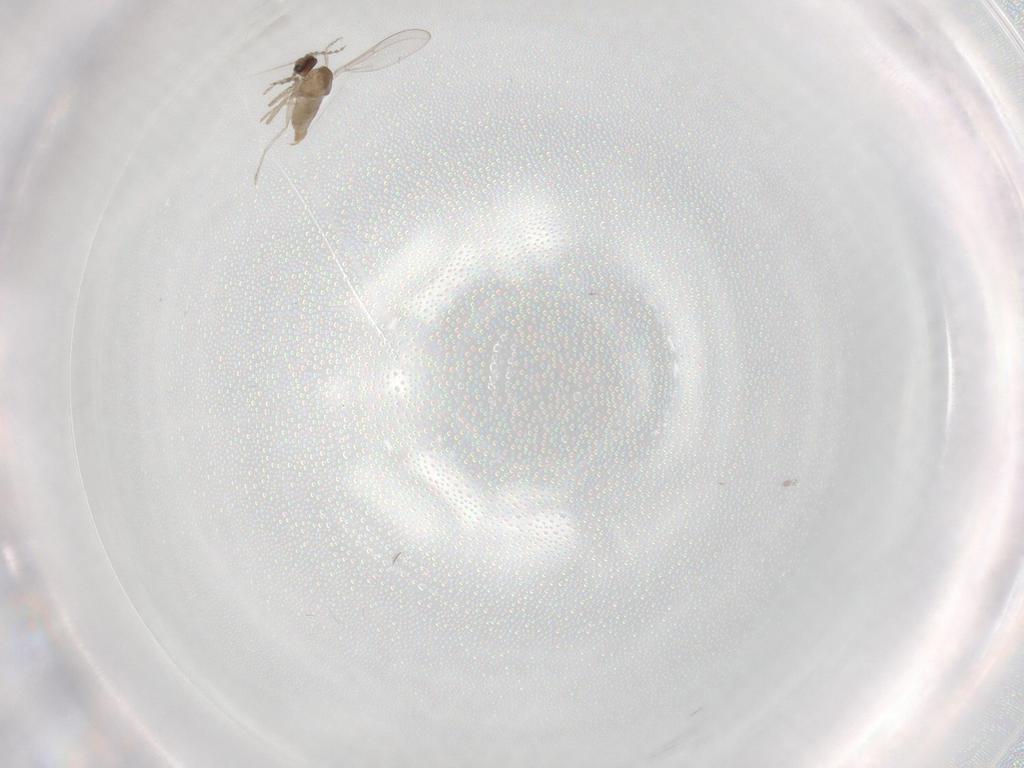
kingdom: Animalia
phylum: Arthropoda
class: Insecta
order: Diptera
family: Cecidomyiidae
